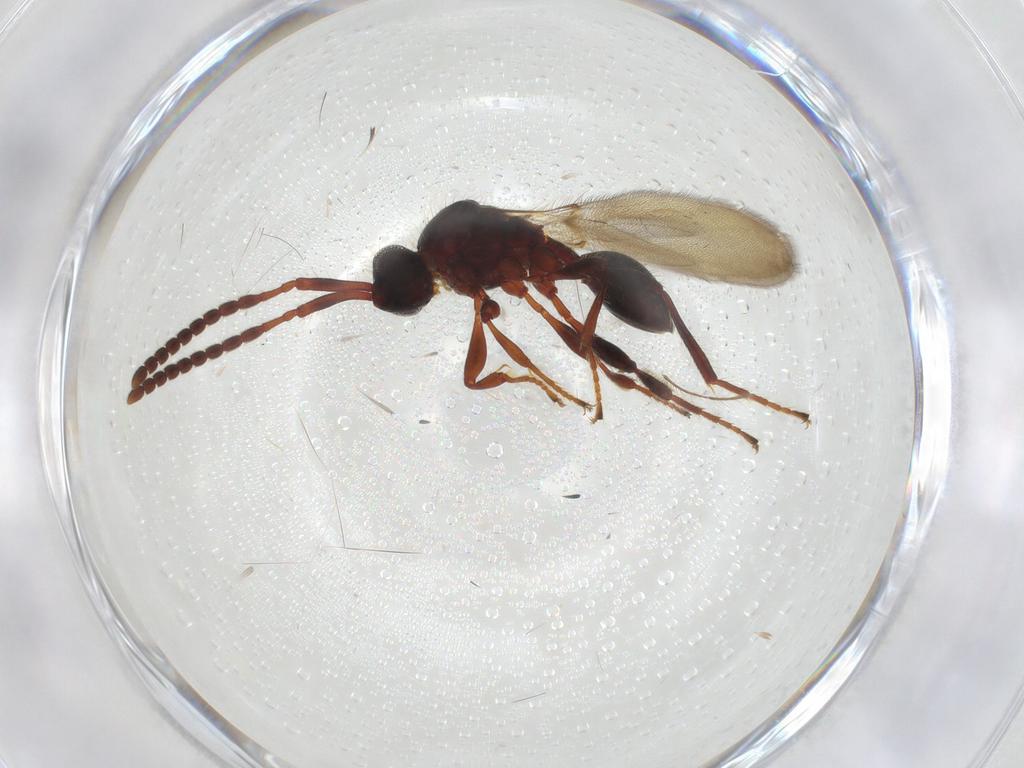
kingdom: Animalia
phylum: Arthropoda
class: Insecta
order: Hymenoptera
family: Diapriidae
